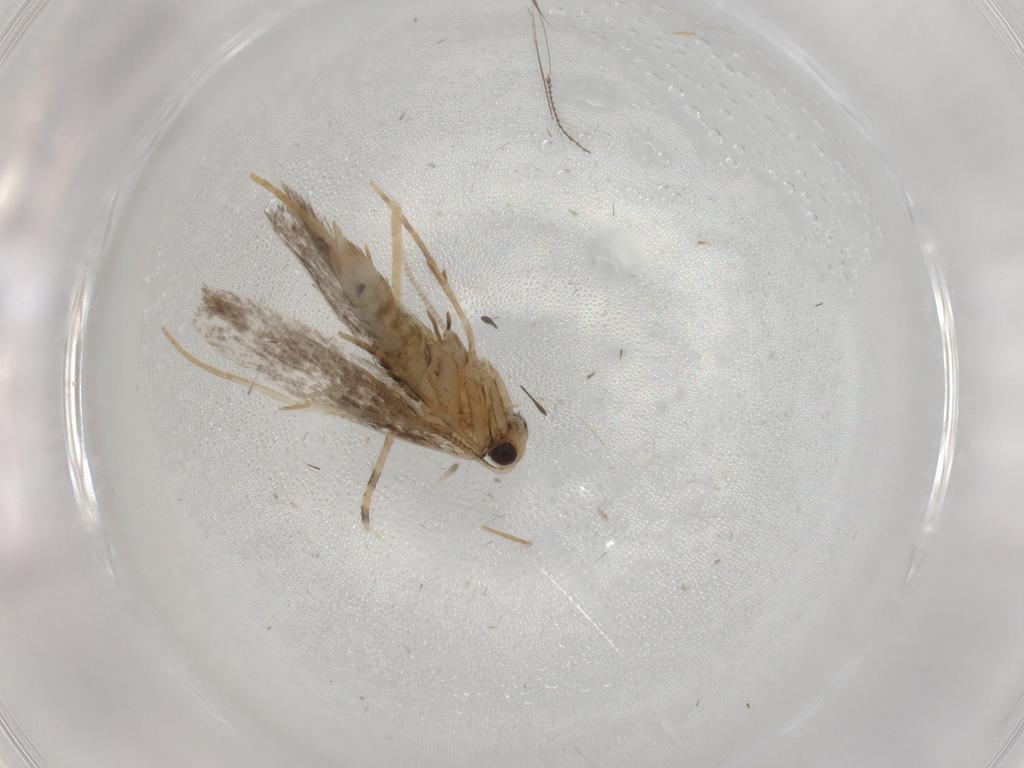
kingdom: Animalia
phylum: Arthropoda
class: Insecta
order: Lepidoptera
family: Tineidae
